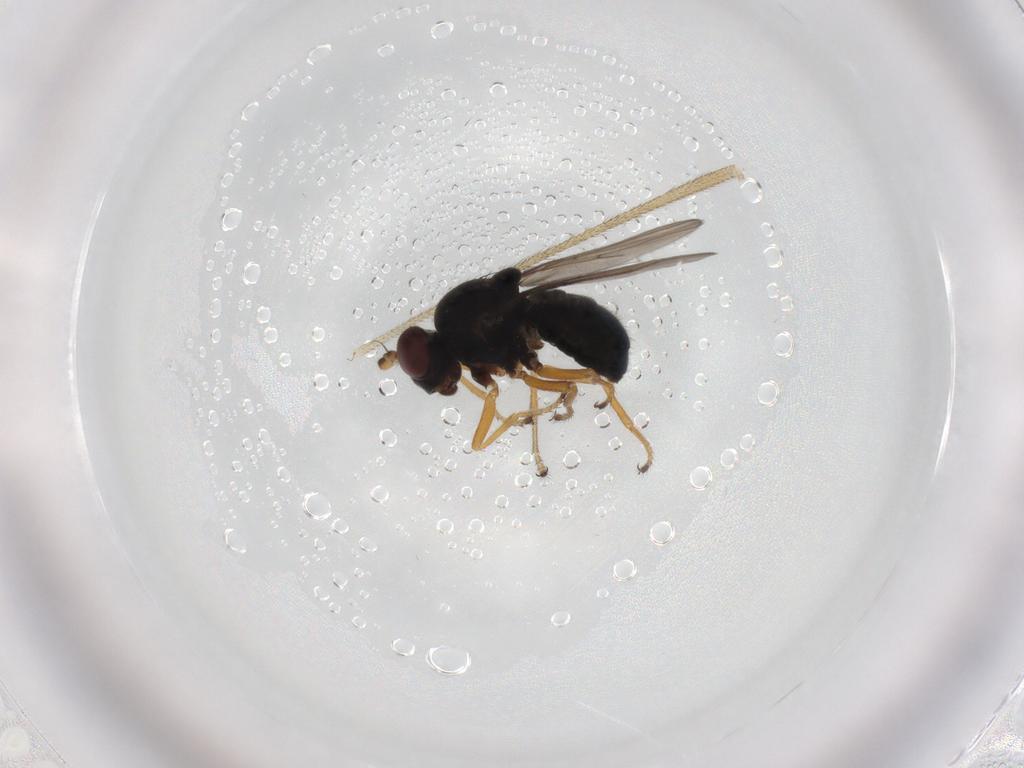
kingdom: Animalia
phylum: Arthropoda
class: Insecta
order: Diptera
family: Ephydridae
